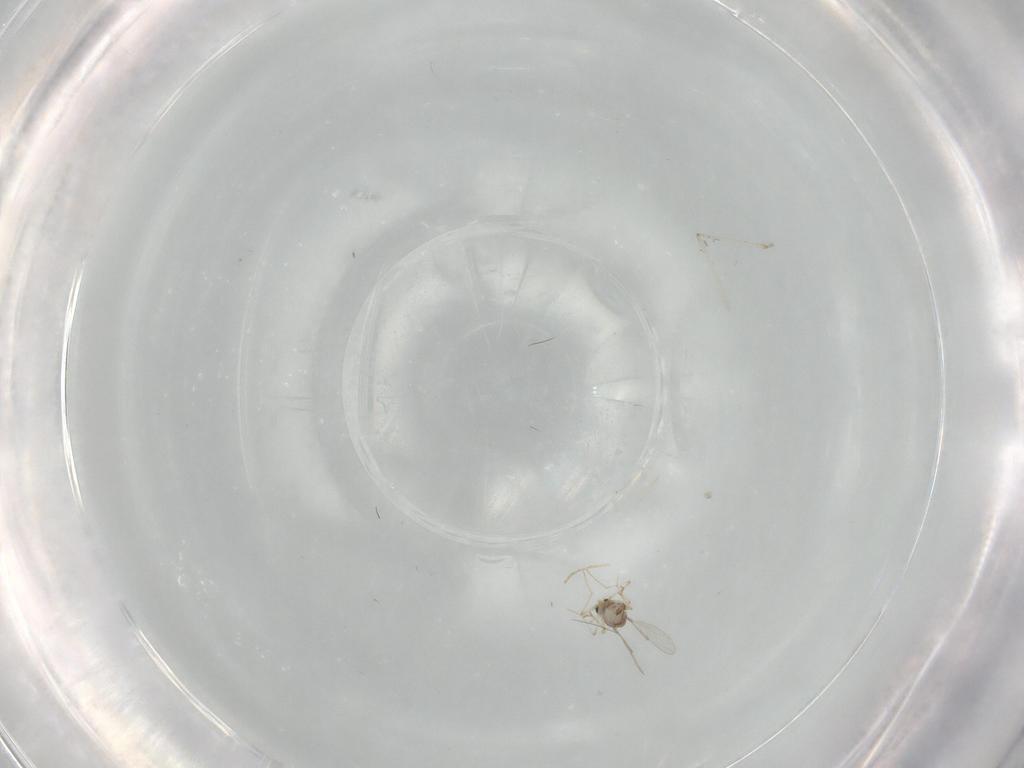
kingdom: Animalia
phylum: Arthropoda
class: Insecta
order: Diptera
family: Chironomidae
